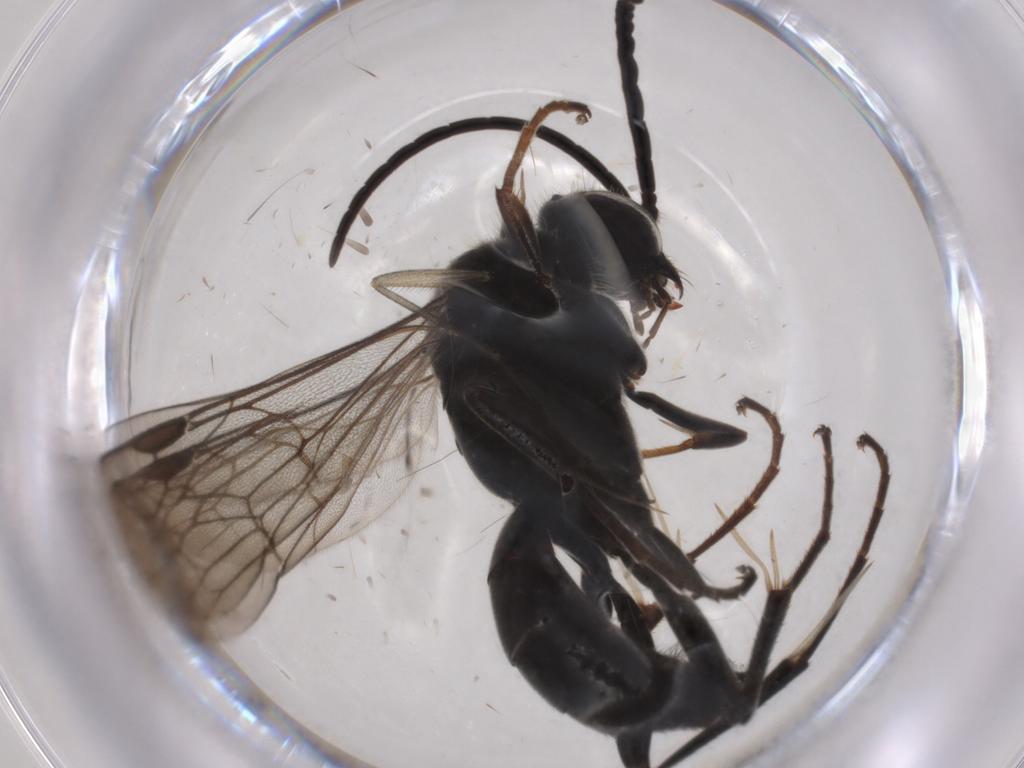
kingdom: Animalia
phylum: Arthropoda
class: Insecta
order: Hymenoptera
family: Pompilidae
